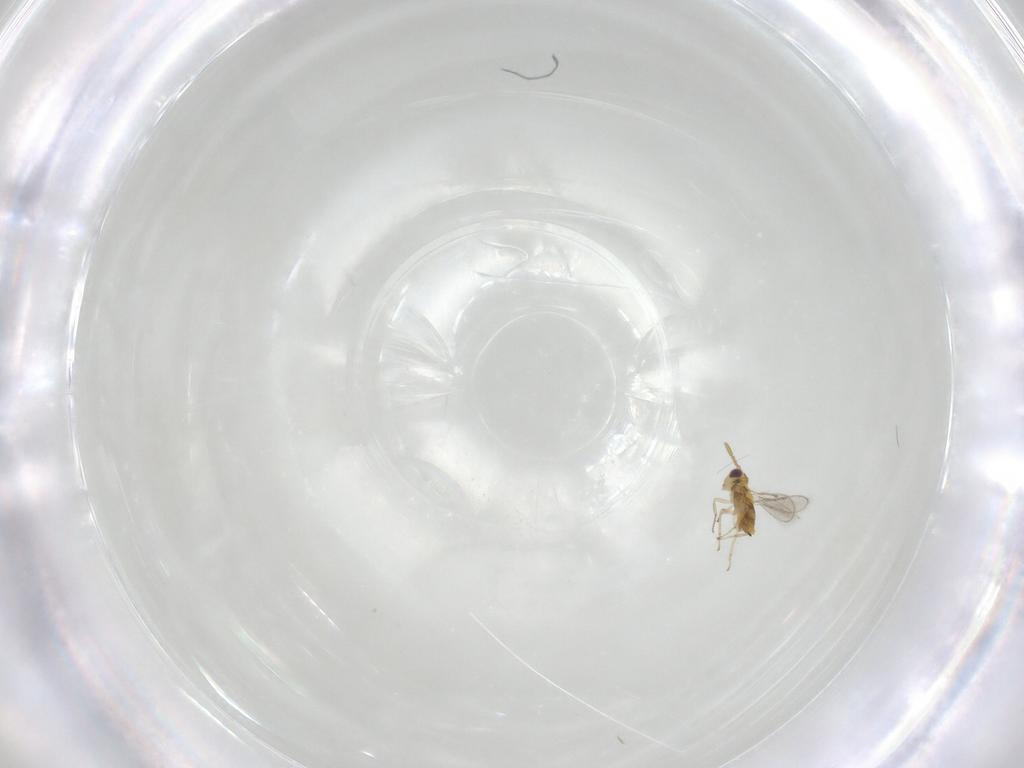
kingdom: Animalia
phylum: Arthropoda
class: Insecta
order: Hymenoptera
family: Aphelinidae
